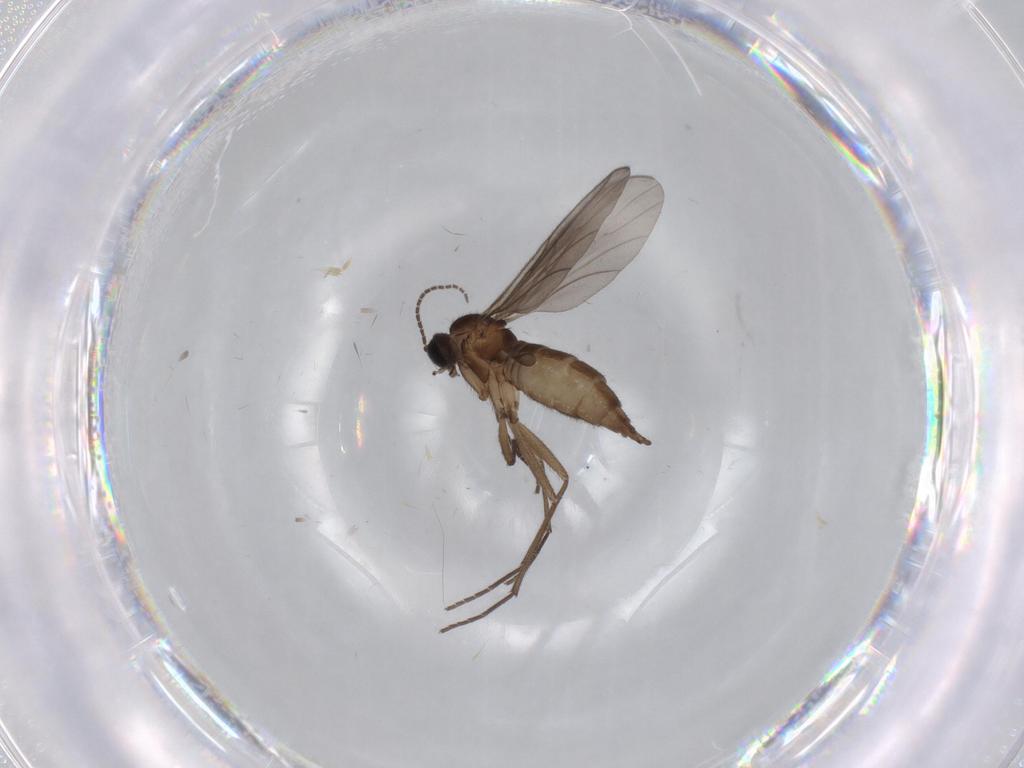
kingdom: Animalia
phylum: Arthropoda
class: Insecta
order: Diptera
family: Sciaridae
